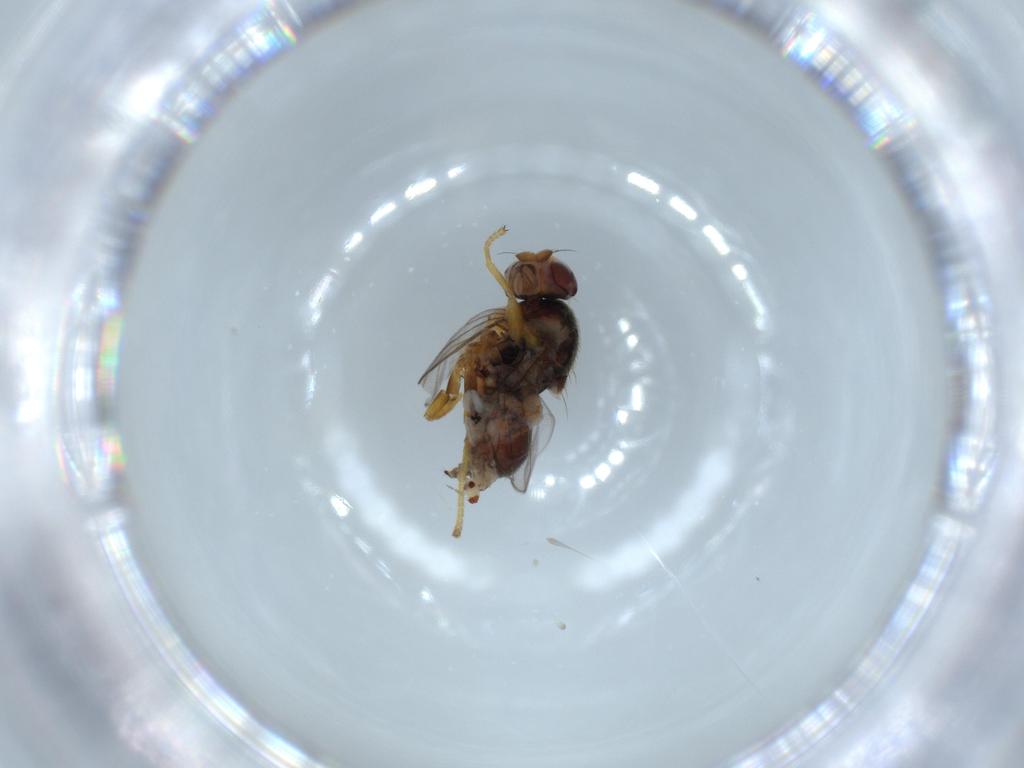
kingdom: Animalia
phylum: Arthropoda
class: Insecta
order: Diptera
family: Chloropidae
